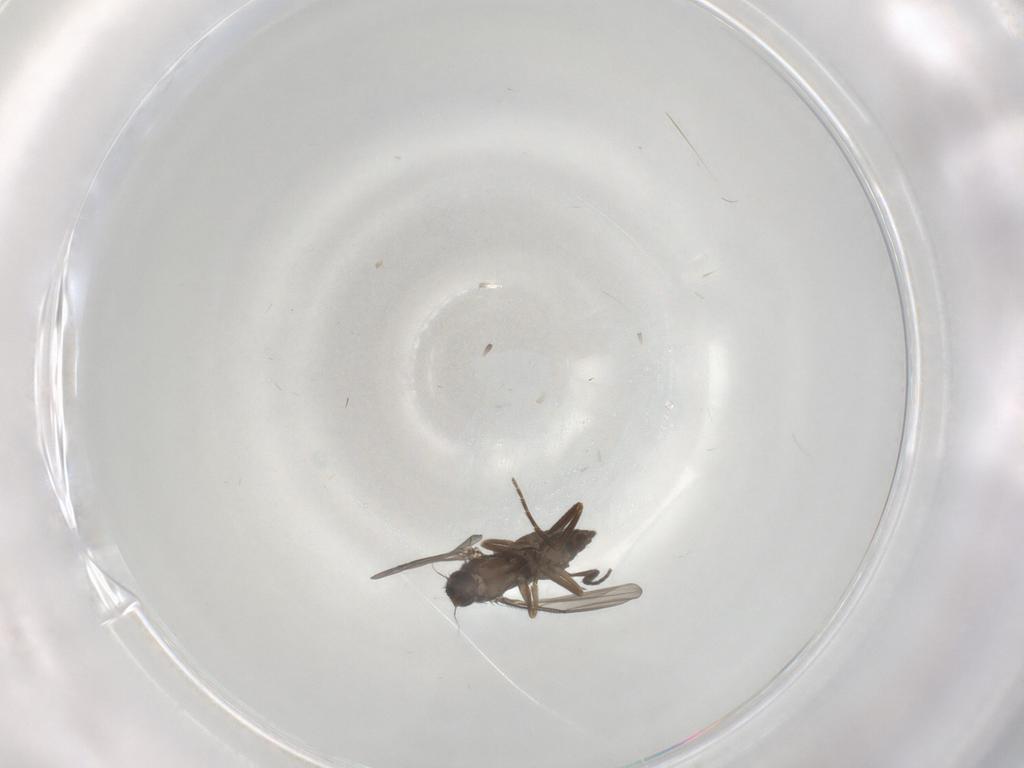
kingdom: Animalia
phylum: Arthropoda
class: Insecta
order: Diptera
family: Phoridae
